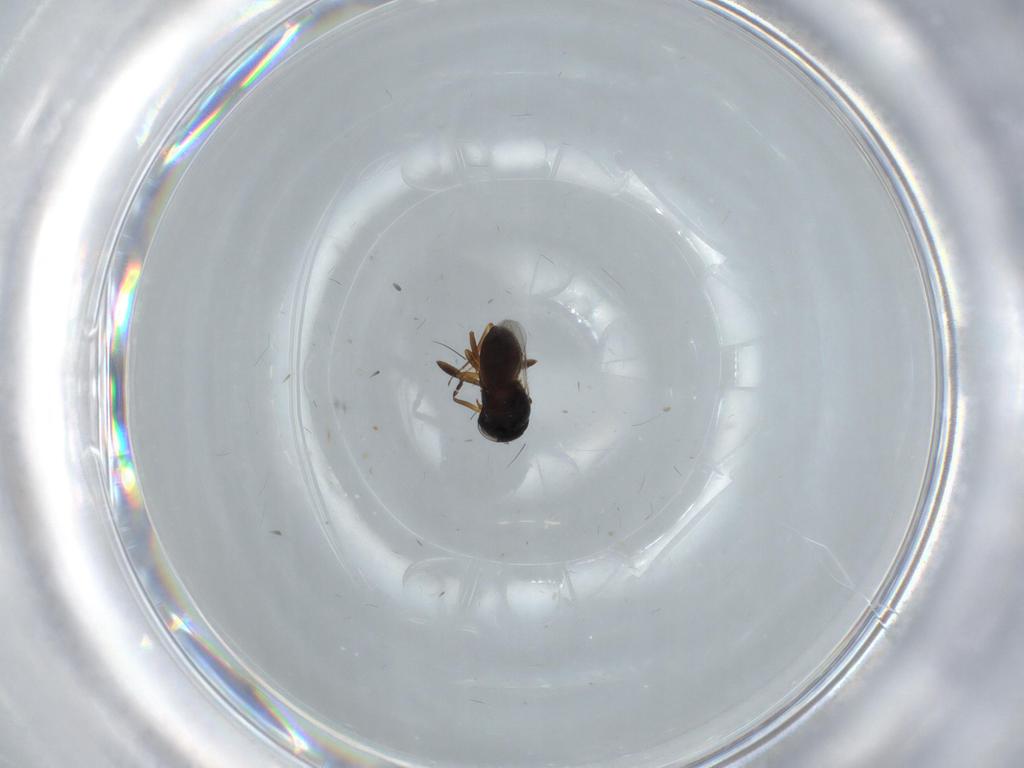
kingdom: Animalia
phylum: Arthropoda
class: Insecta
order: Hymenoptera
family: Scelionidae
